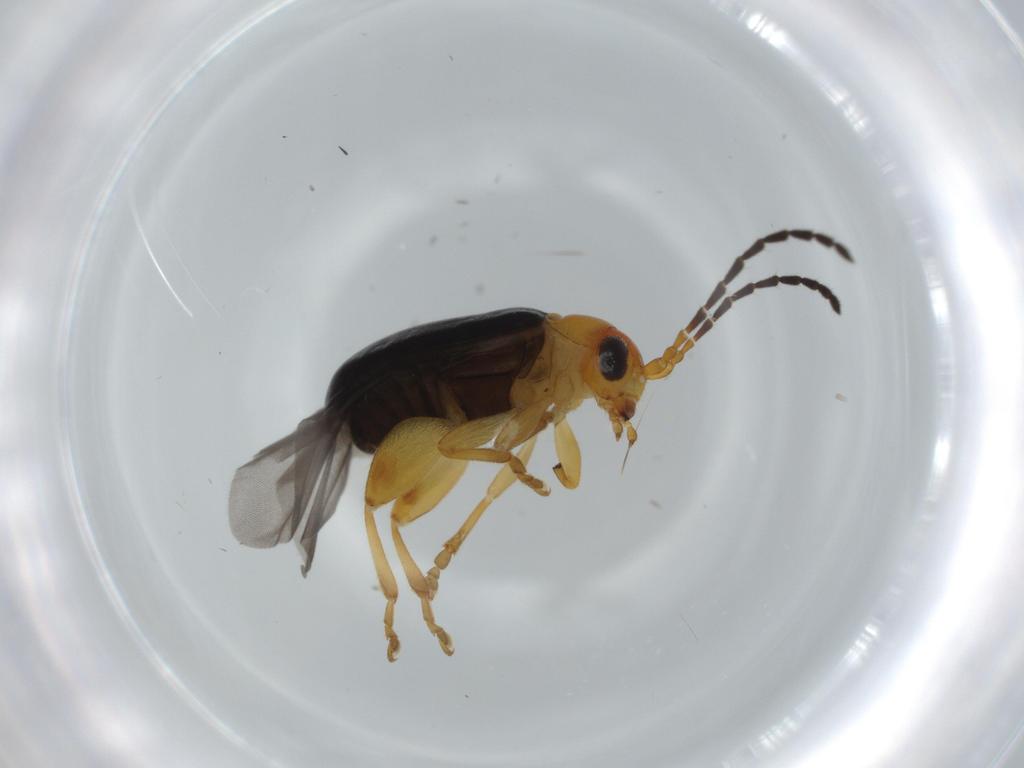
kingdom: Animalia
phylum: Arthropoda
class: Insecta
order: Coleoptera
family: Chrysomelidae
